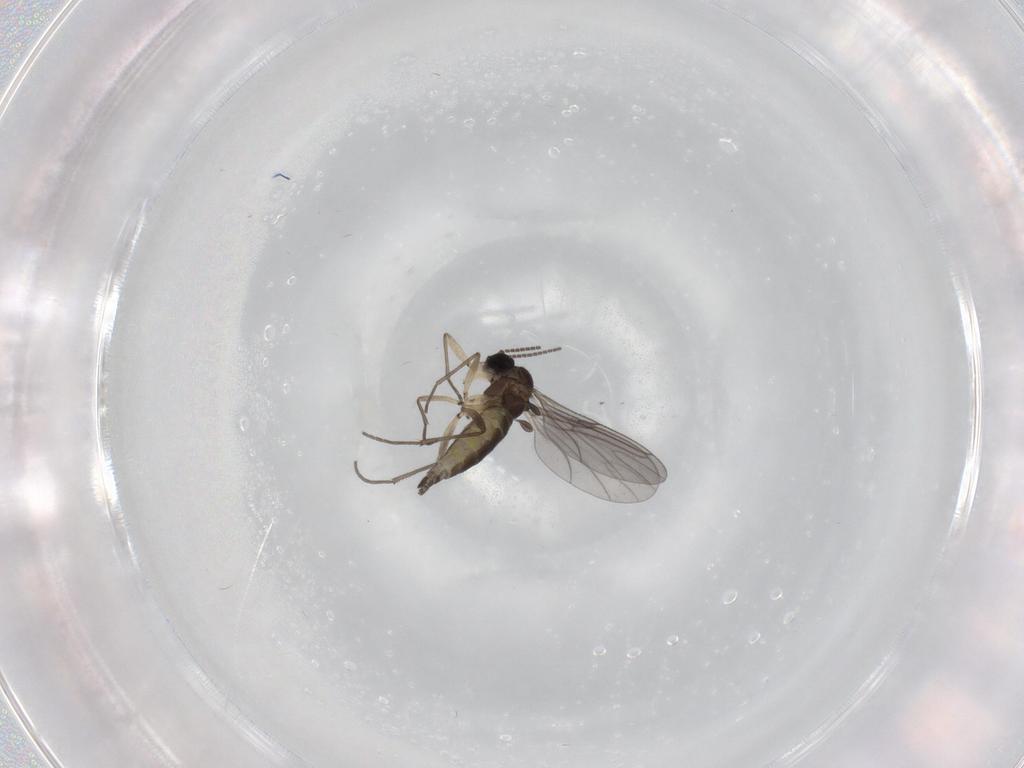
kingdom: Animalia
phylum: Arthropoda
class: Insecta
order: Diptera
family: Sciaridae
